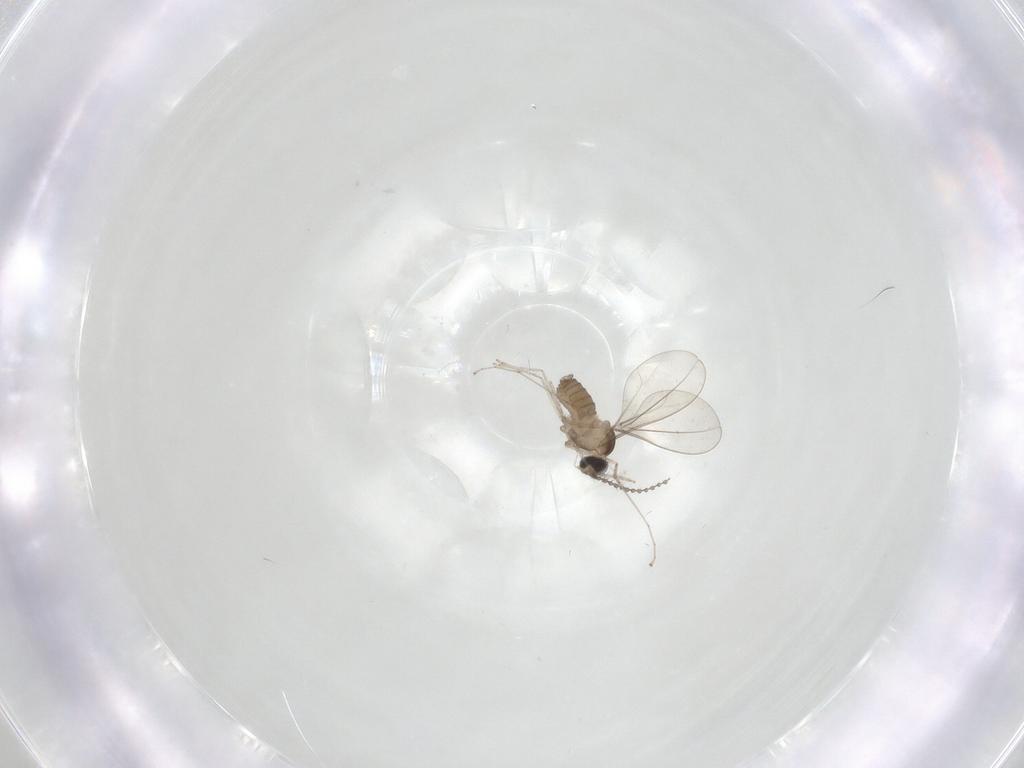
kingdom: Animalia
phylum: Arthropoda
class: Insecta
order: Diptera
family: Cecidomyiidae
